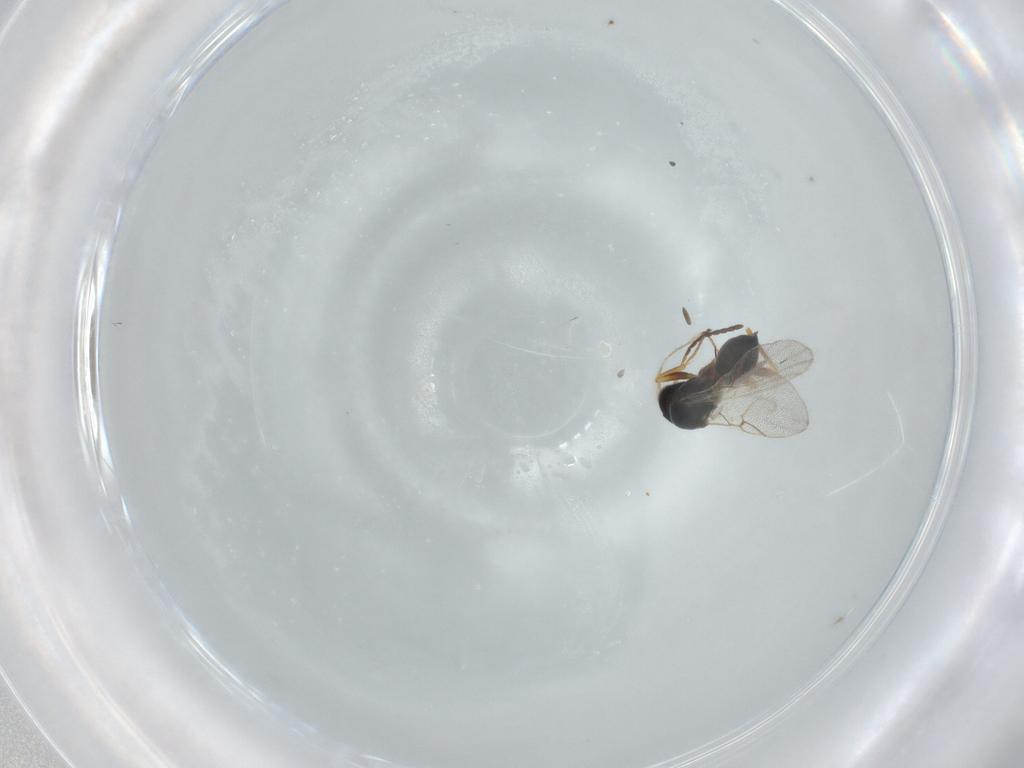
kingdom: Animalia
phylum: Arthropoda
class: Insecta
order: Hymenoptera
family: Figitidae
